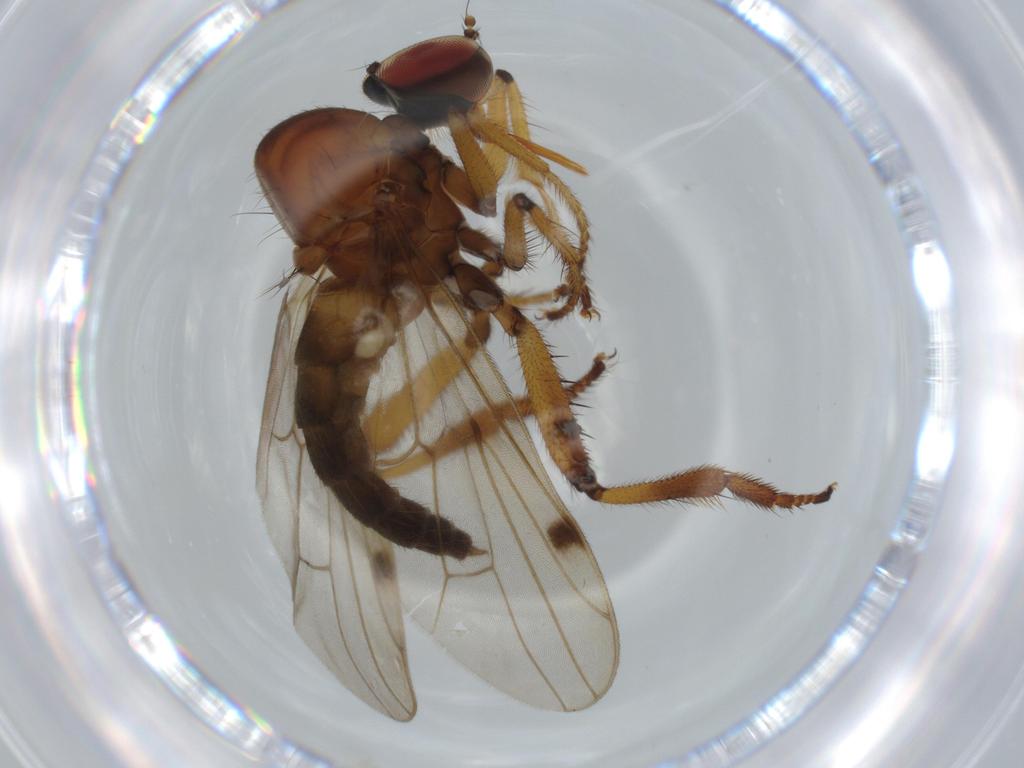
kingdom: Animalia
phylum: Arthropoda
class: Insecta
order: Diptera
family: Hybotidae
